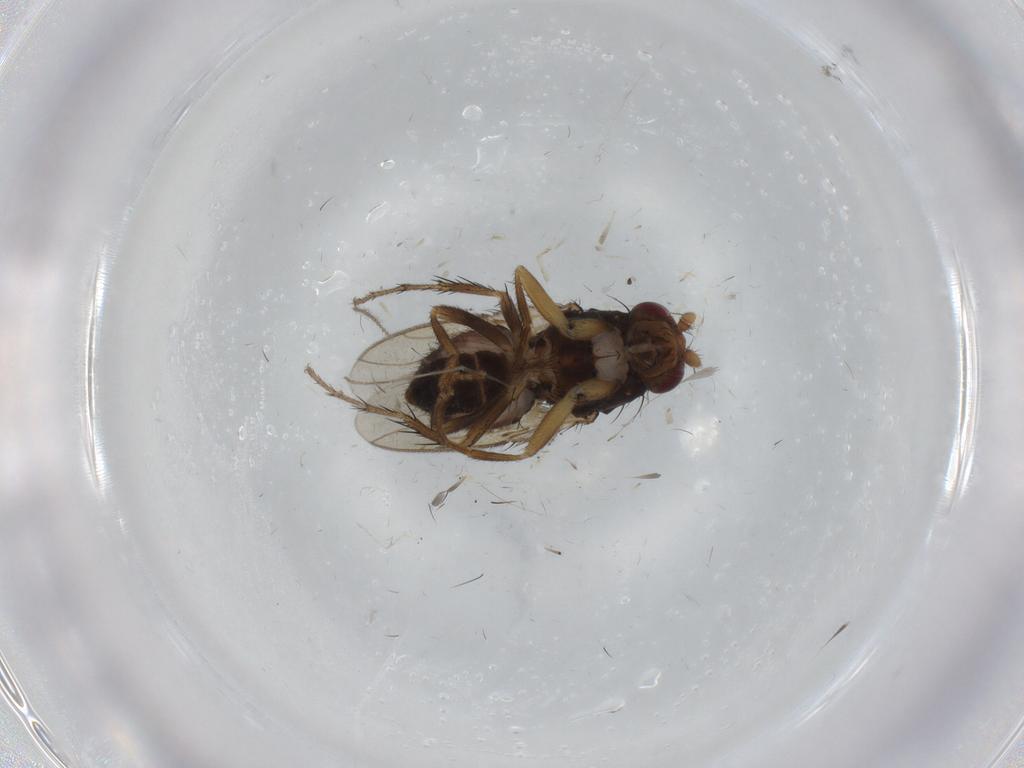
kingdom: Animalia
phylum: Arthropoda
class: Insecta
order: Diptera
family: Sphaeroceridae
